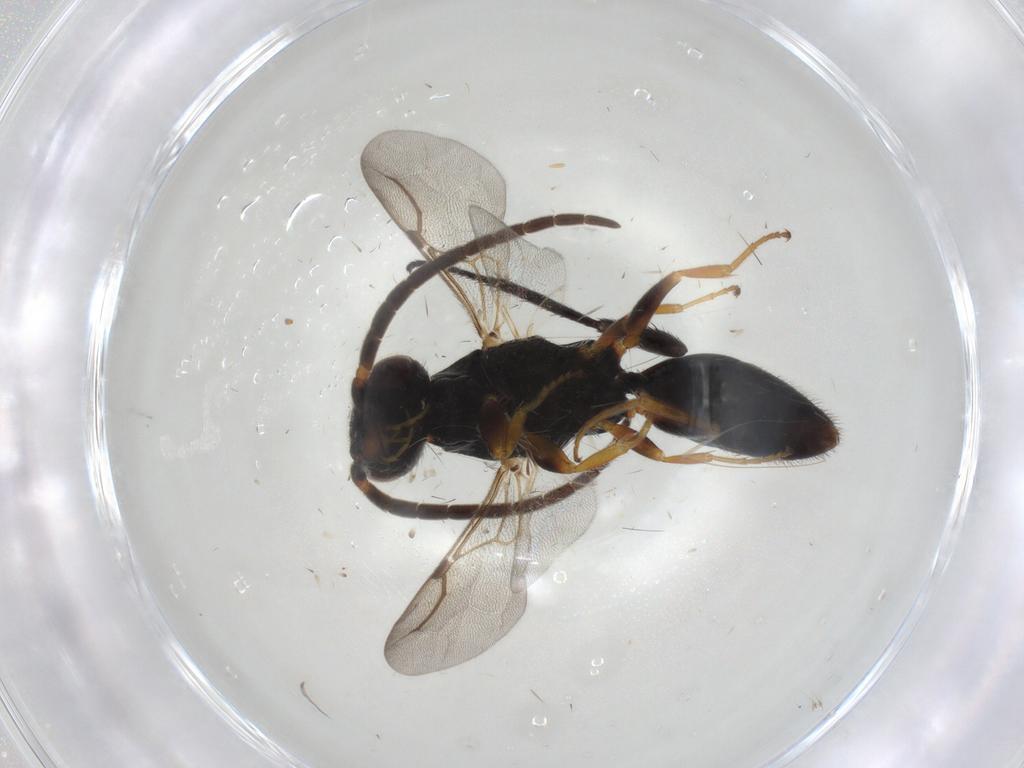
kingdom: Animalia
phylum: Arthropoda
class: Insecta
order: Hymenoptera
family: Bethylidae
